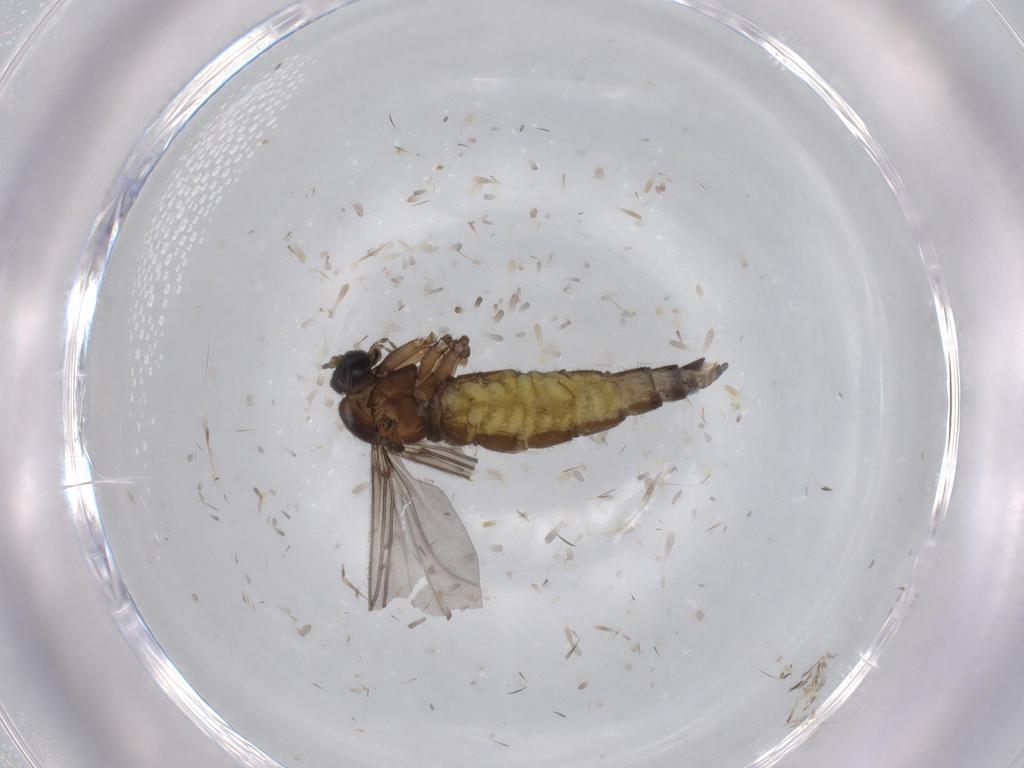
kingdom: Animalia
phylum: Arthropoda
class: Insecta
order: Diptera
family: Sciaridae
